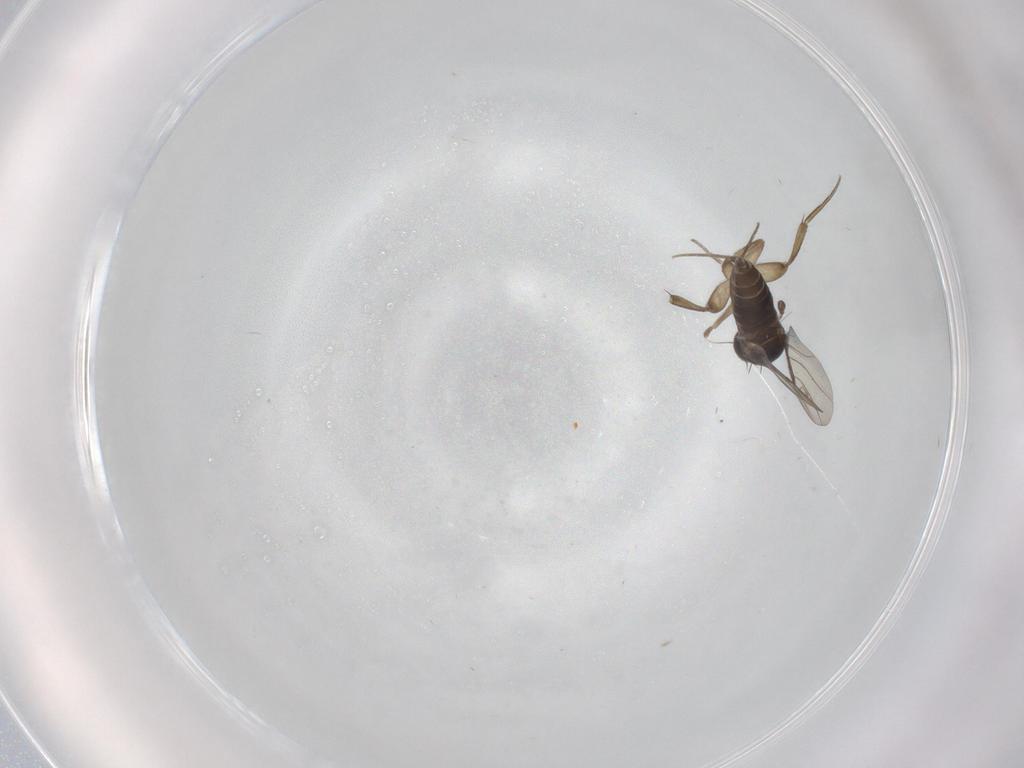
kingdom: Animalia
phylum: Arthropoda
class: Insecta
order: Diptera
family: Phoridae
